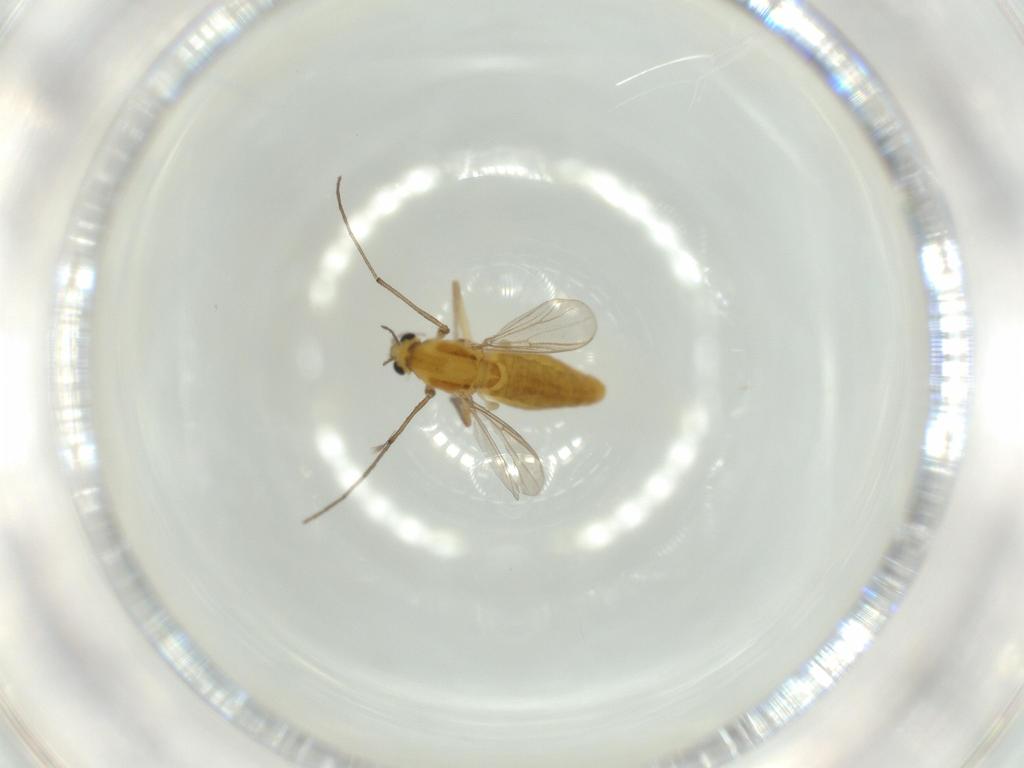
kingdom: Animalia
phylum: Arthropoda
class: Insecta
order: Diptera
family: Chironomidae
